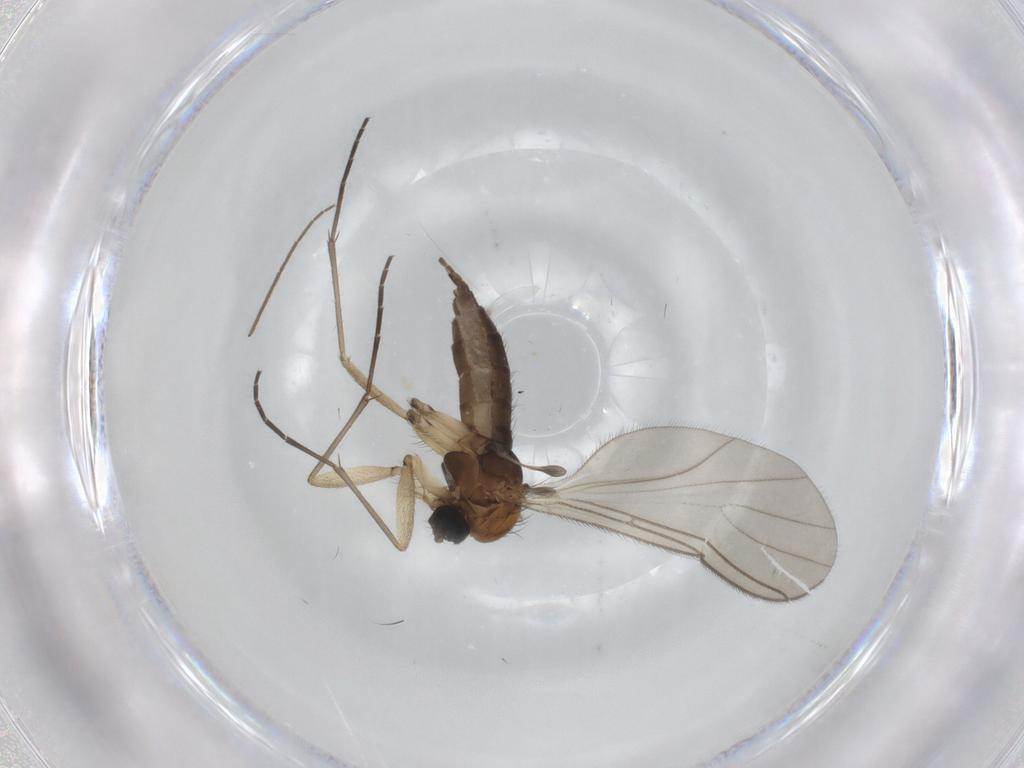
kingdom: Animalia
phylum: Arthropoda
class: Insecta
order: Diptera
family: Sciaridae
